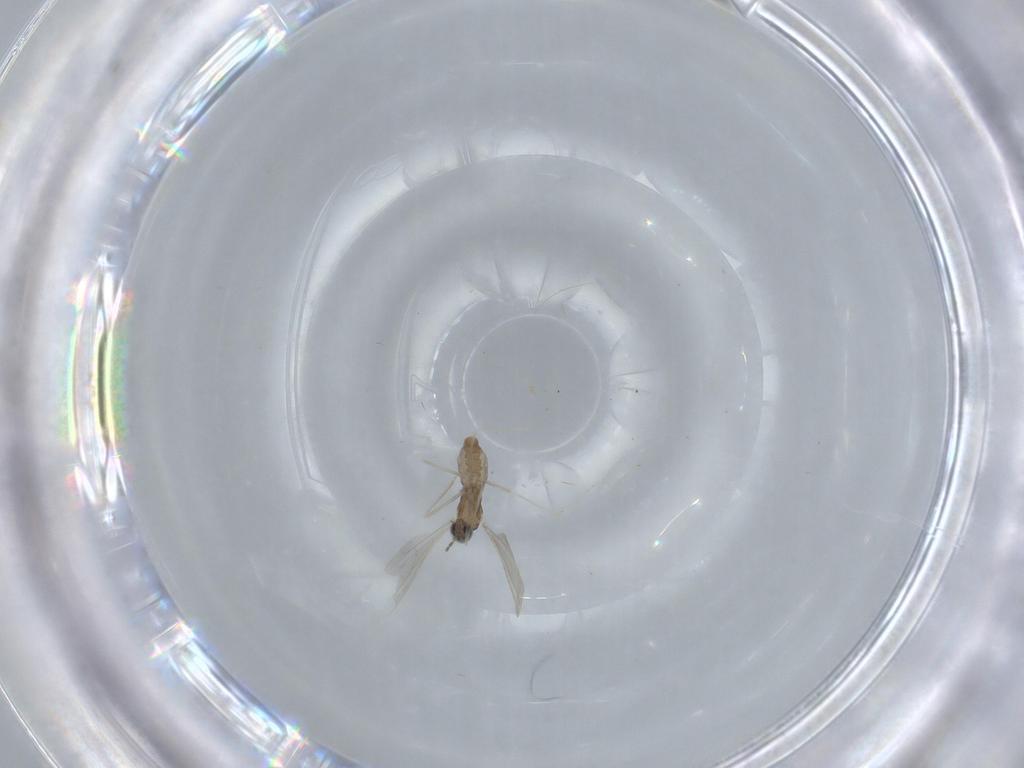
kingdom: Animalia
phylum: Arthropoda
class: Insecta
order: Diptera
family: Cecidomyiidae
